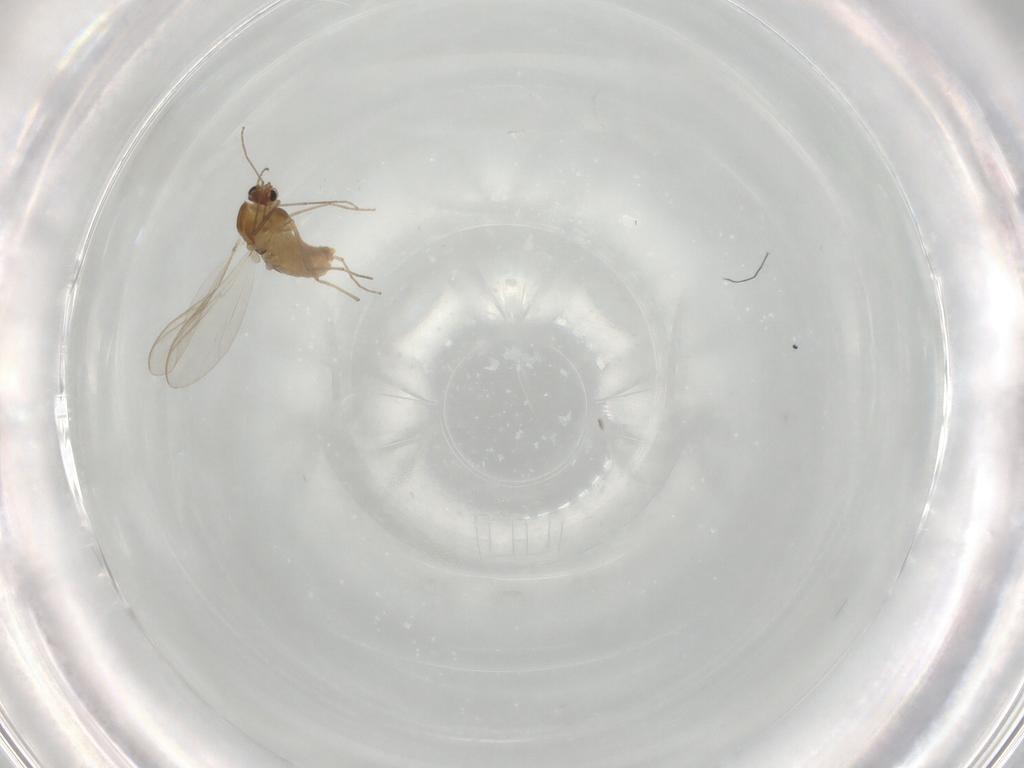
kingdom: Animalia
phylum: Arthropoda
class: Insecta
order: Diptera
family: Chironomidae
